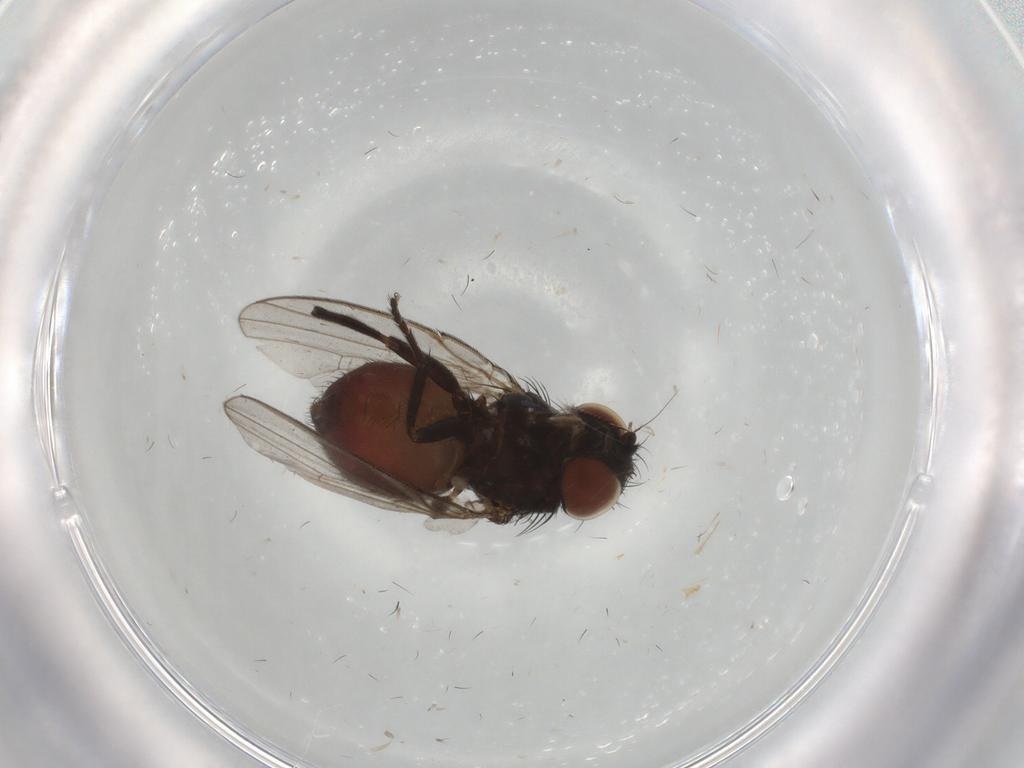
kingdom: Animalia
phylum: Arthropoda
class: Insecta
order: Diptera
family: Chloropidae
